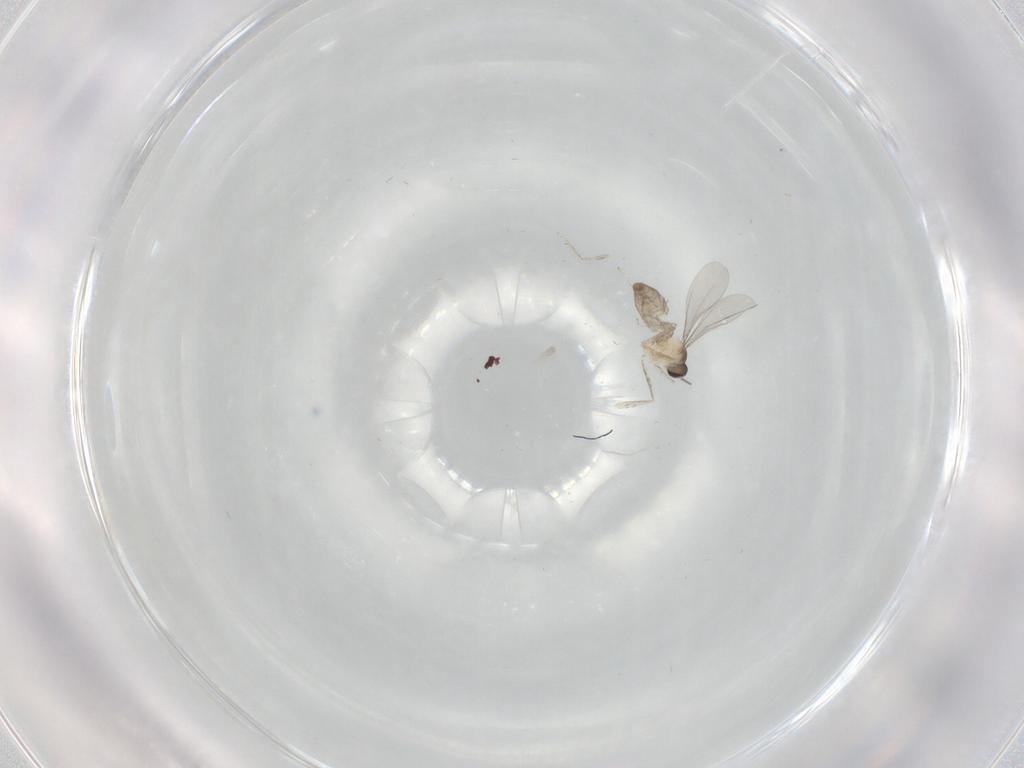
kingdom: Animalia
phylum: Arthropoda
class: Insecta
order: Diptera
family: Cecidomyiidae
